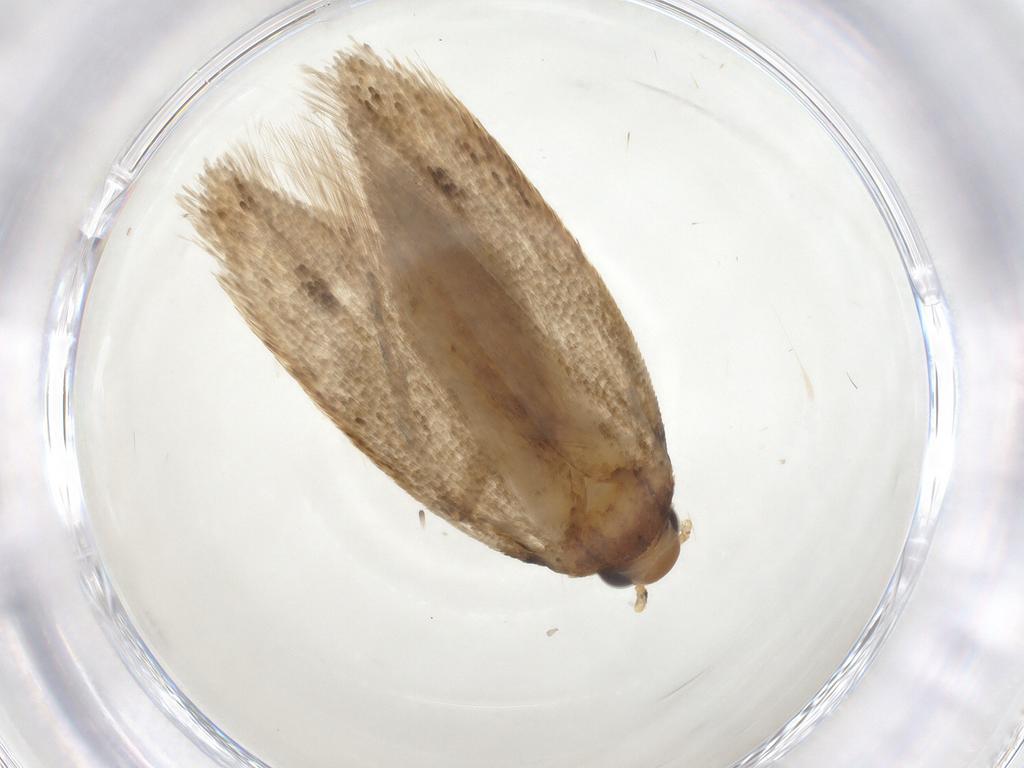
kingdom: Animalia
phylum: Arthropoda
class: Insecta
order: Lepidoptera
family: Oecophoridae
